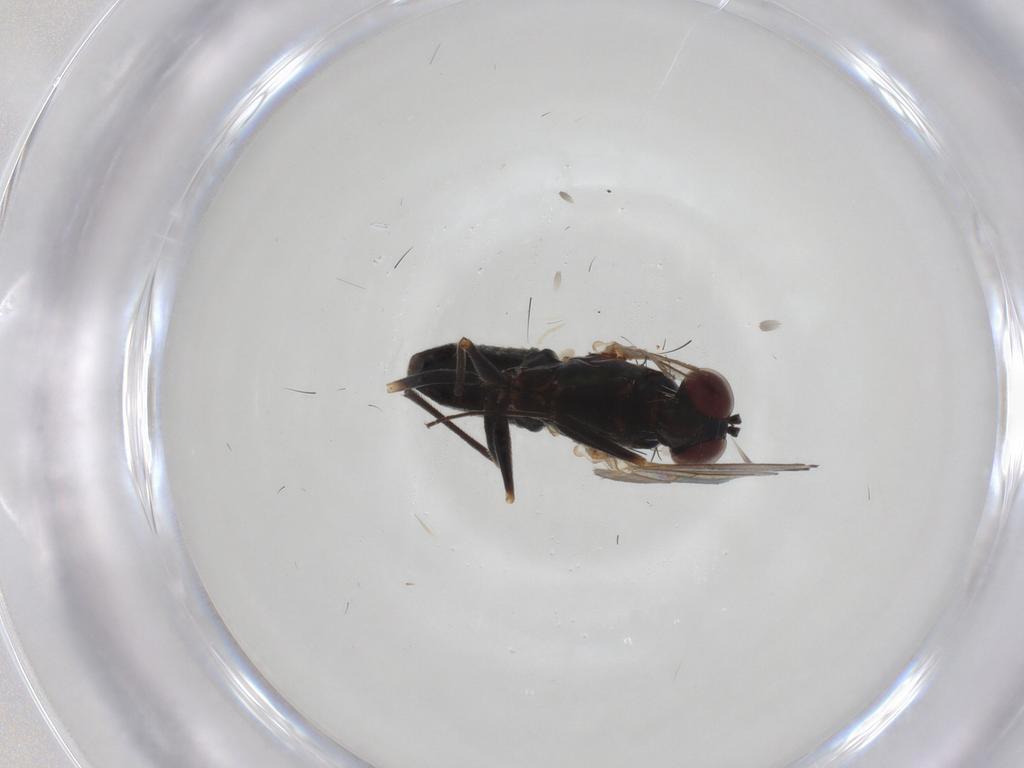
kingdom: Animalia
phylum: Arthropoda
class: Insecta
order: Diptera
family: Dolichopodidae
